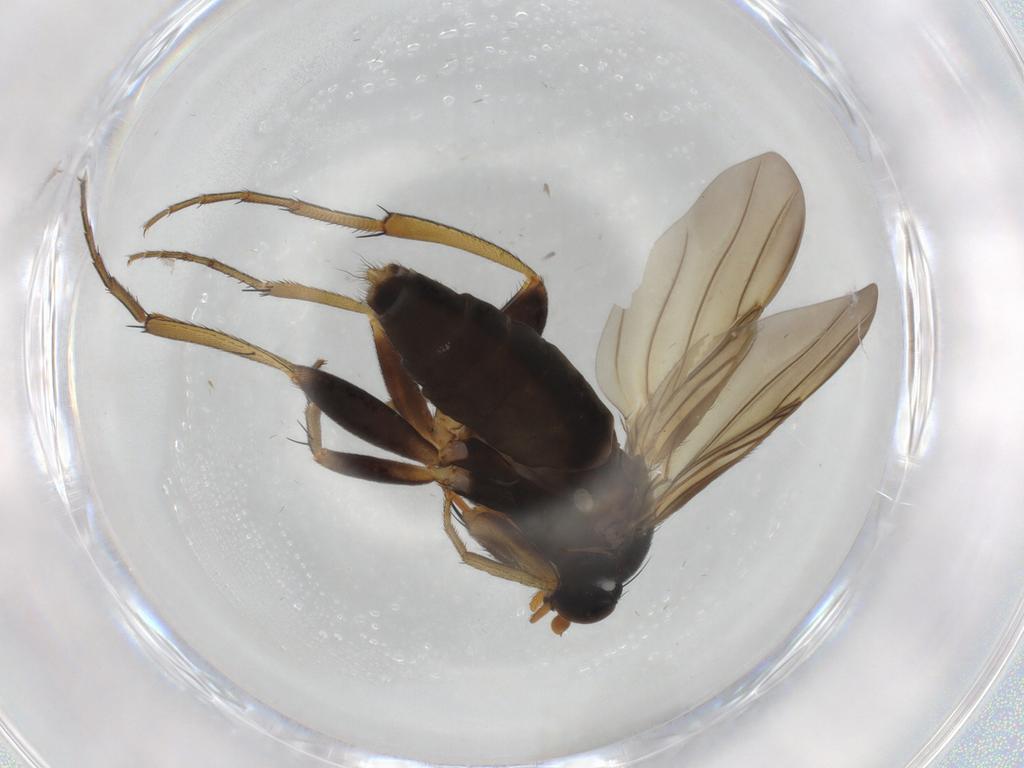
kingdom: Animalia
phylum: Arthropoda
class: Insecta
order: Diptera
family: Phoridae
